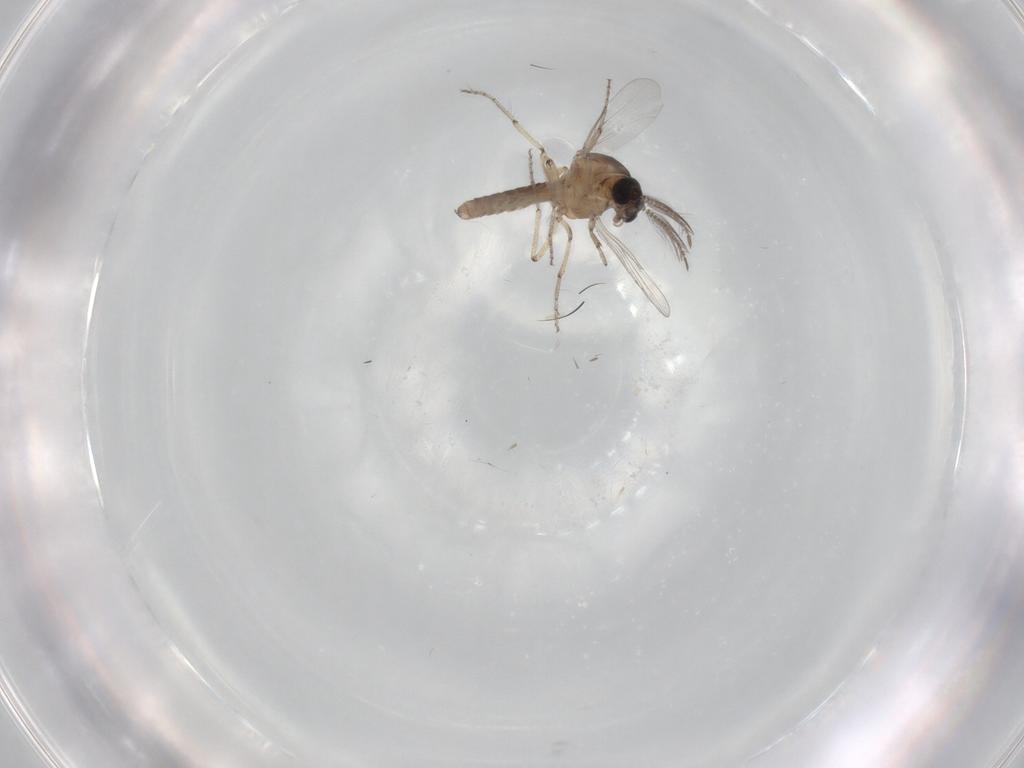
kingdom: Animalia
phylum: Arthropoda
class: Insecta
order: Diptera
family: Ceratopogonidae
